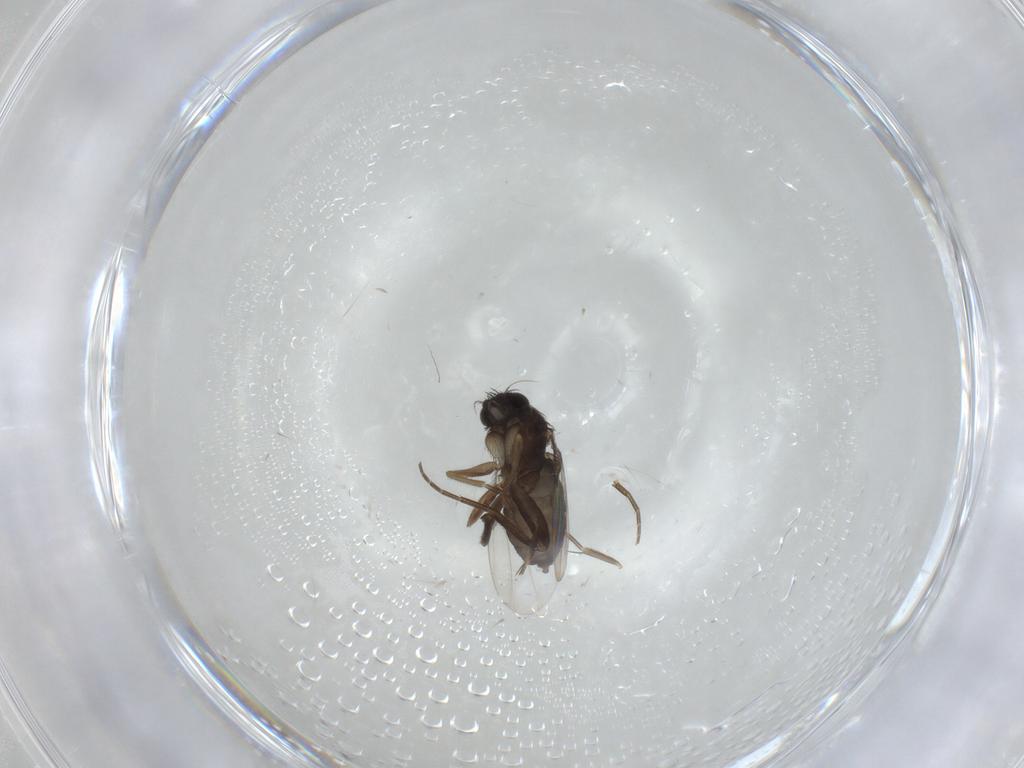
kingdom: Animalia
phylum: Arthropoda
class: Insecta
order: Diptera
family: Phoridae
